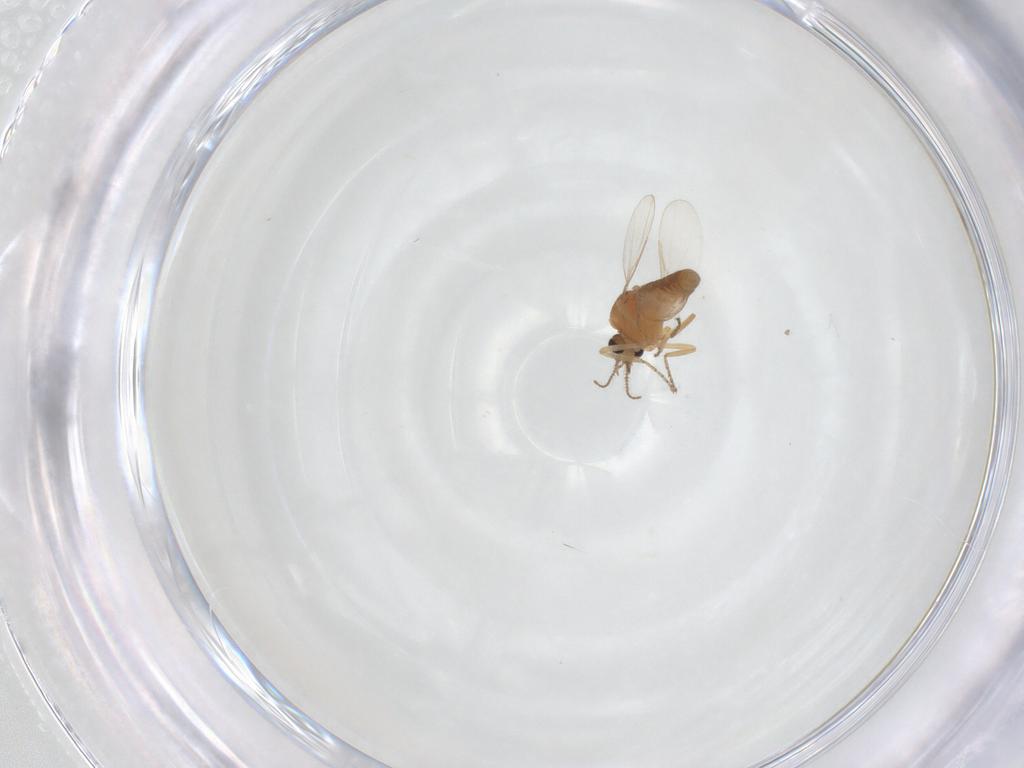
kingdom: Animalia
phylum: Arthropoda
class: Insecta
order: Diptera
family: Ceratopogonidae
